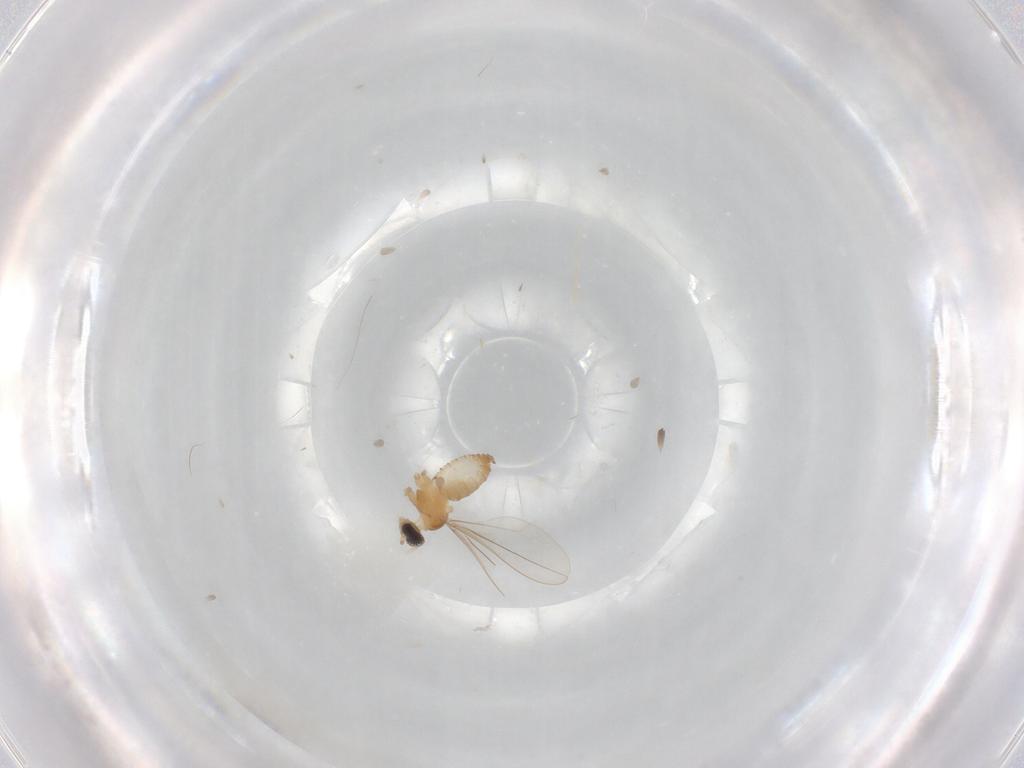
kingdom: Animalia
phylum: Arthropoda
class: Insecta
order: Diptera
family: Cecidomyiidae
